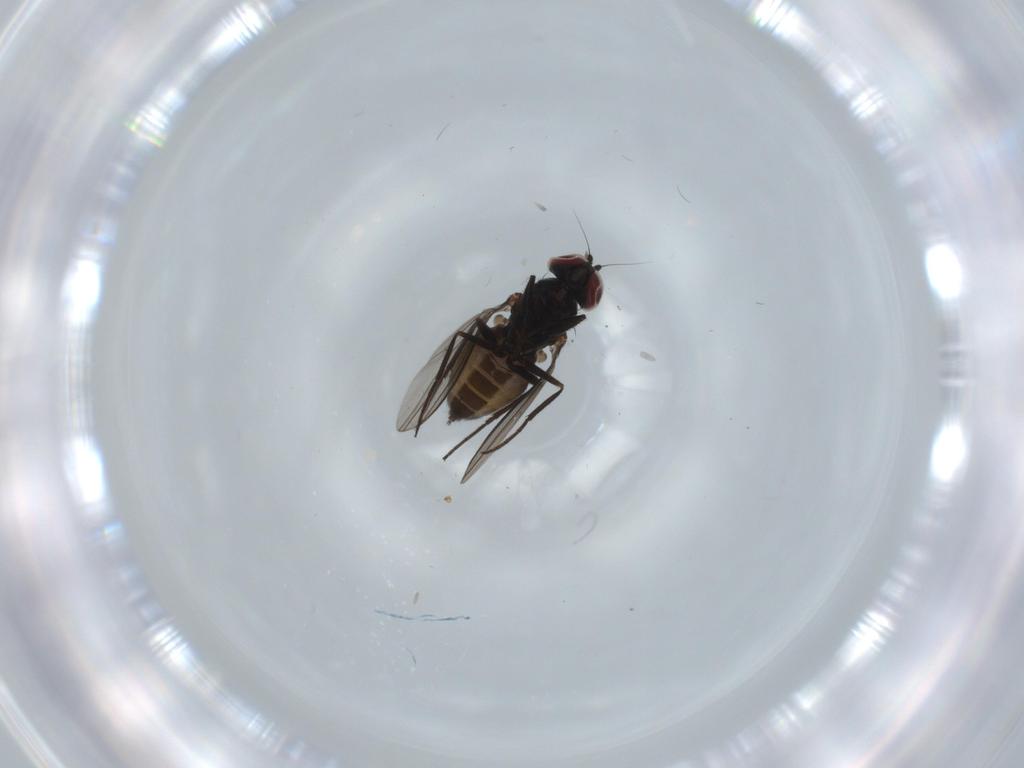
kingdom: Animalia
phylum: Arthropoda
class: Insecta
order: Diptera
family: Dolichopodidae
